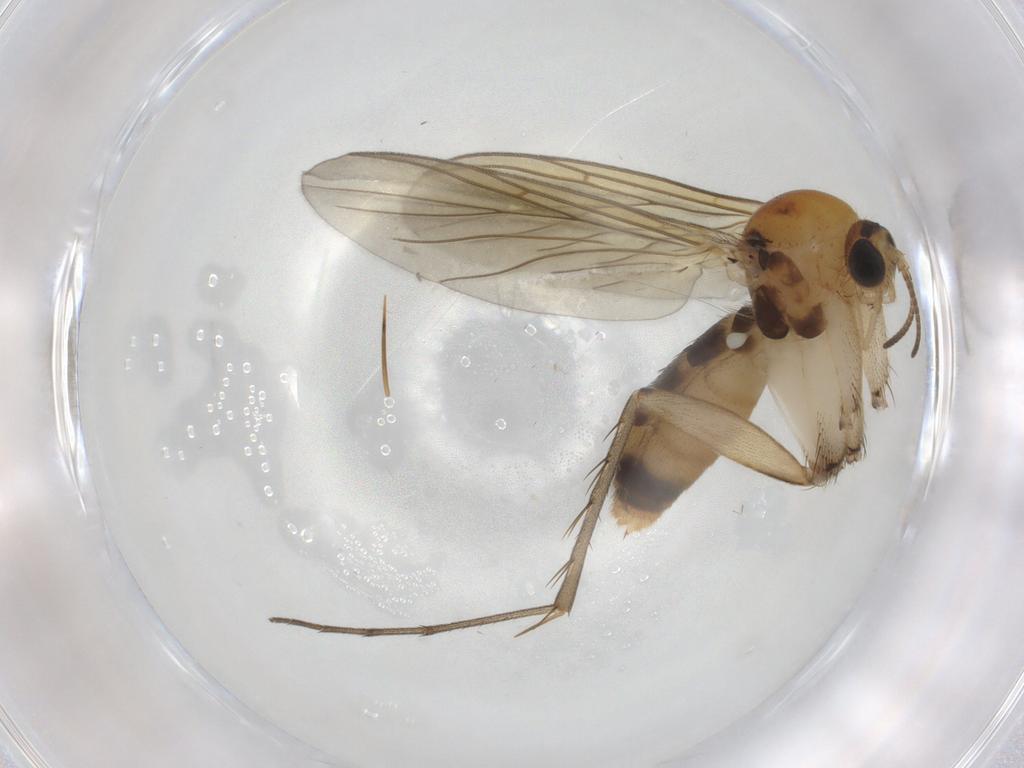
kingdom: Animalia
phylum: Arthropoda
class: Insecta
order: Diptera
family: Mycetophilidae
